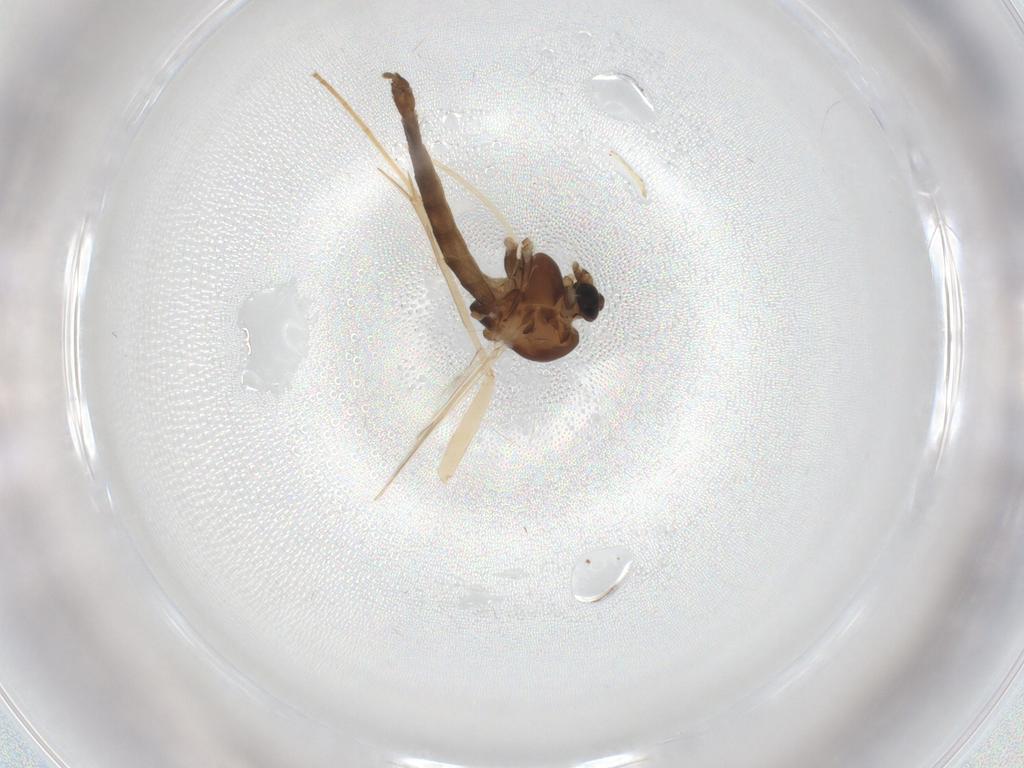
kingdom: Animalia
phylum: Arthropoda
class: Insecta
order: Diptera
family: Chironomidae
